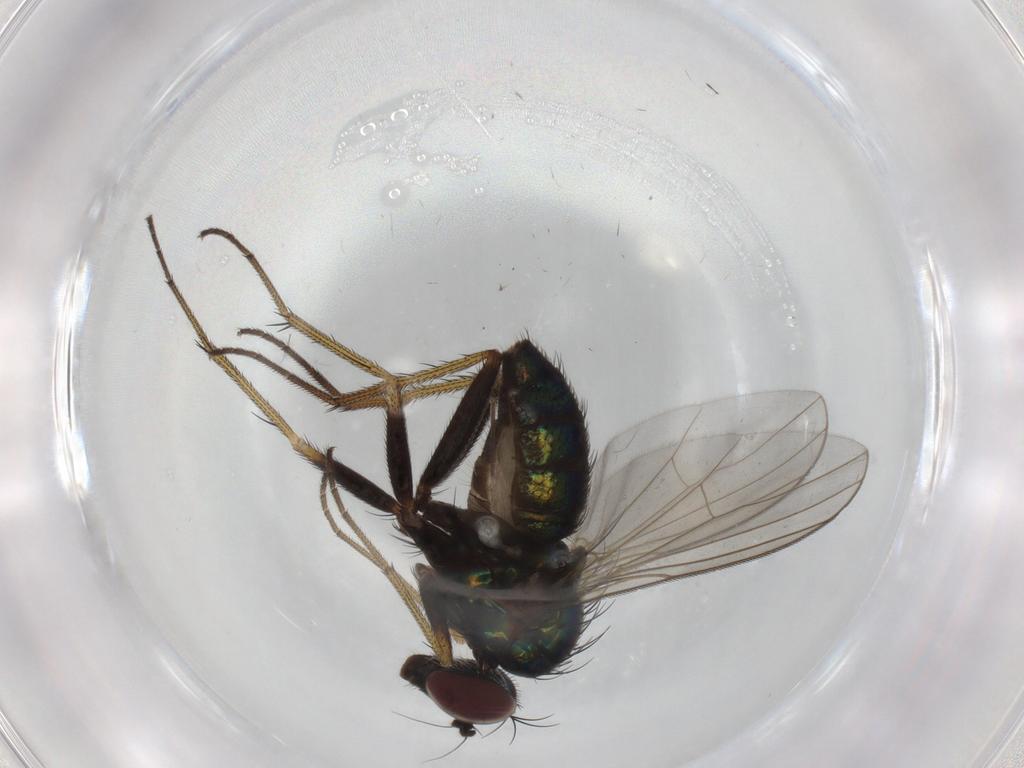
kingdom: Animalia
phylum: Arthropoda
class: Insecta
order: Diptera
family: Dolichopodidae
